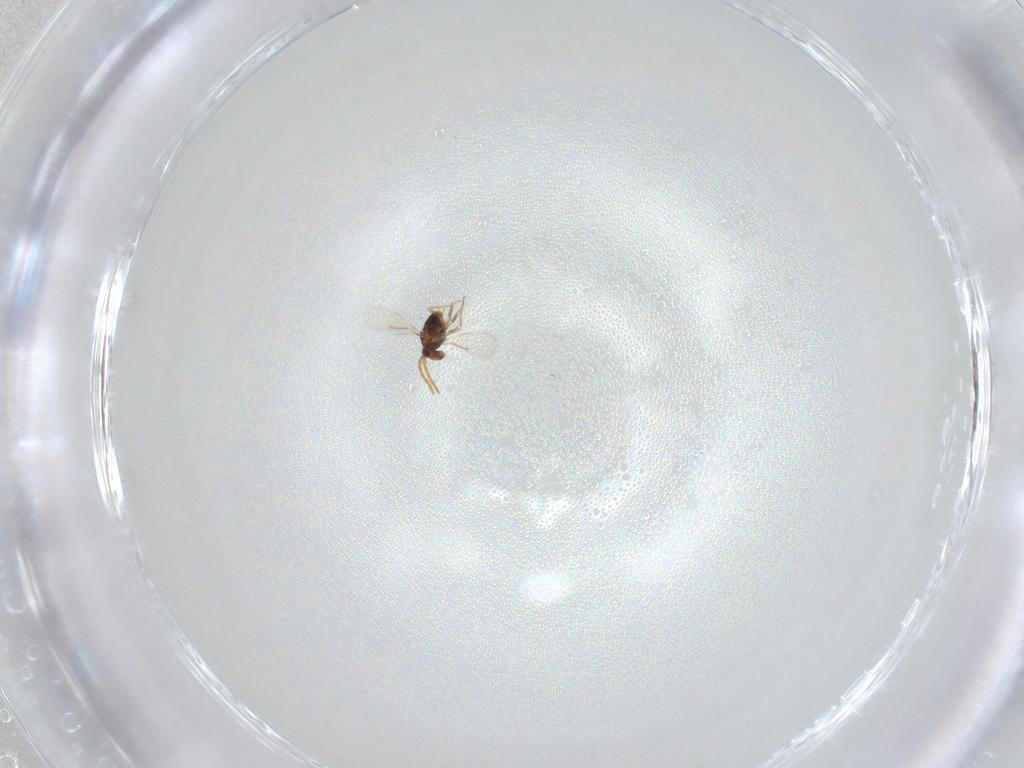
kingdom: Animalia
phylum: Arthropoda
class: Insecta
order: Hymenoptera
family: Aphelinidae
